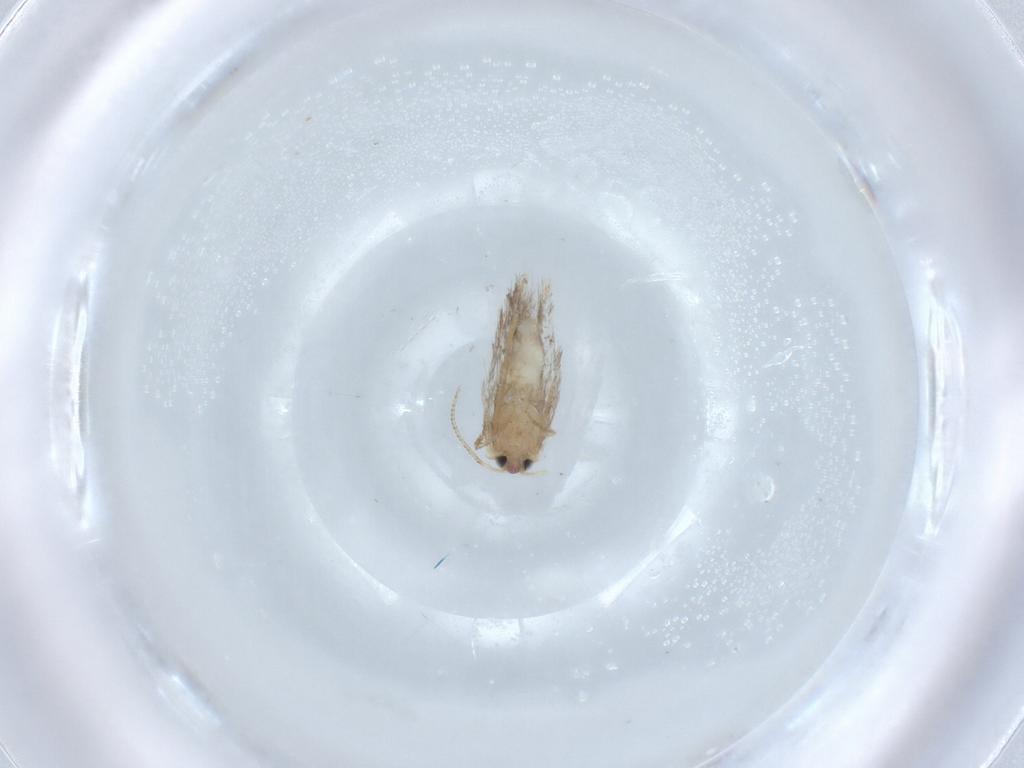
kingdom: Animalia
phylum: Arthropoda
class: Insecta
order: Lepidoptera
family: Nepticulidae
